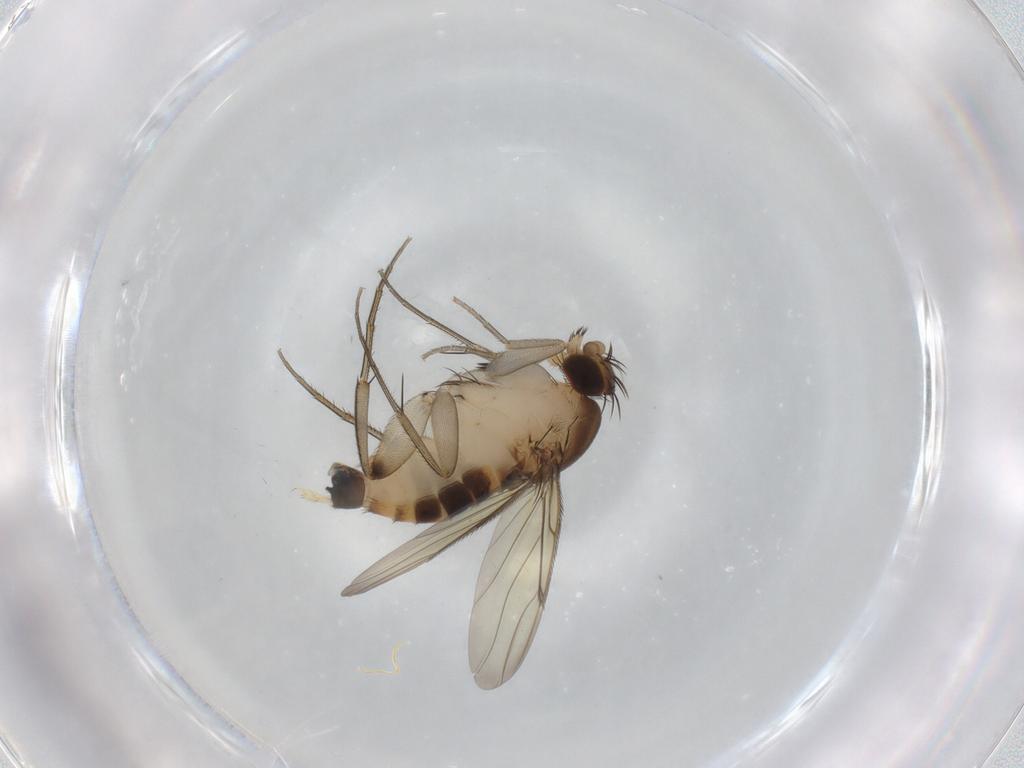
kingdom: Animalia
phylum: Arthropoda
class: Insecta
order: Diptera
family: Phoridae
